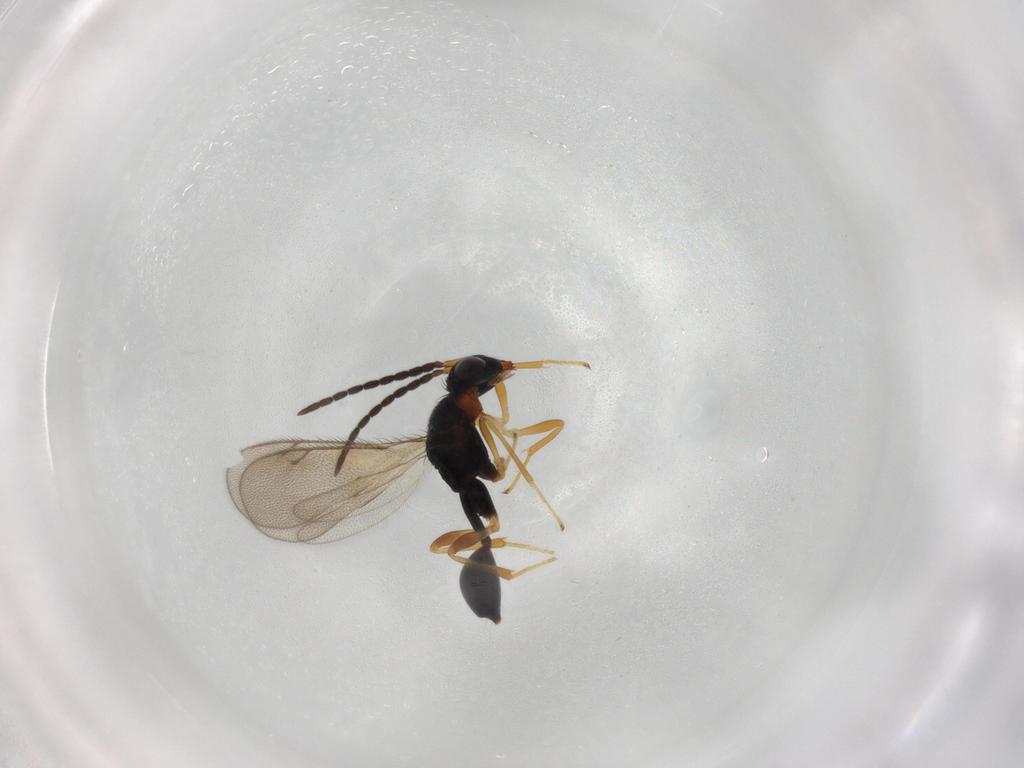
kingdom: Animalia
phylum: Arthropoda
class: Insecta
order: Hymenoptera
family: Diparidae
